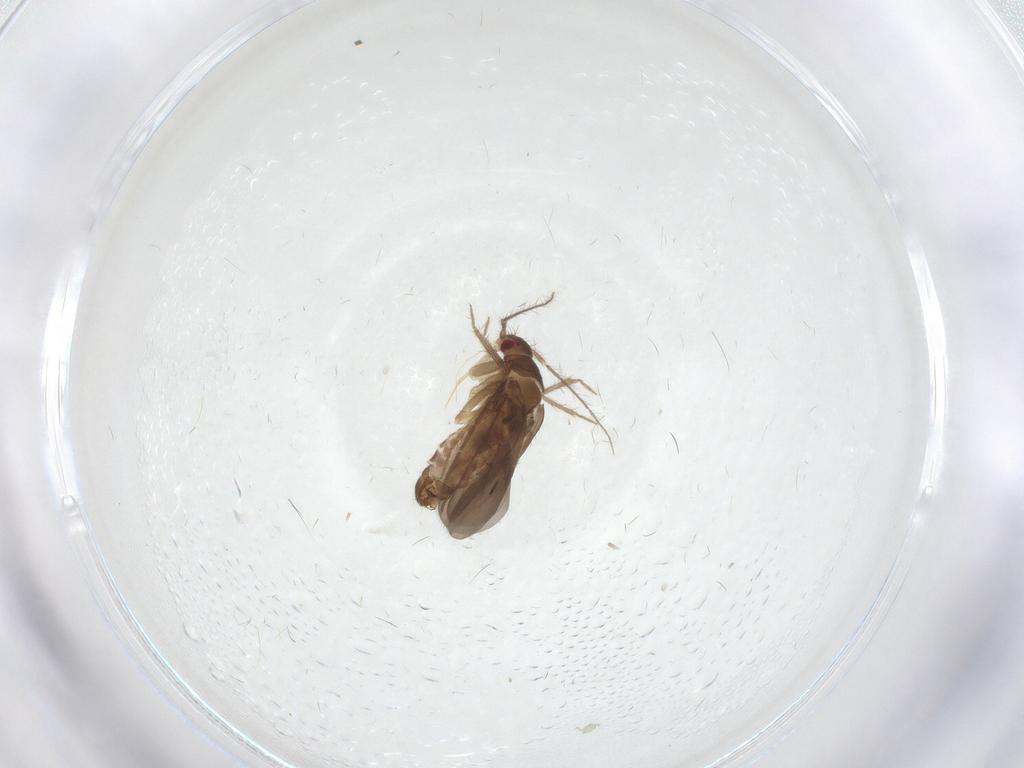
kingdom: Animalia
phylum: Arthropoda
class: Insecta
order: Hemiptera
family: Ceratocombidae
